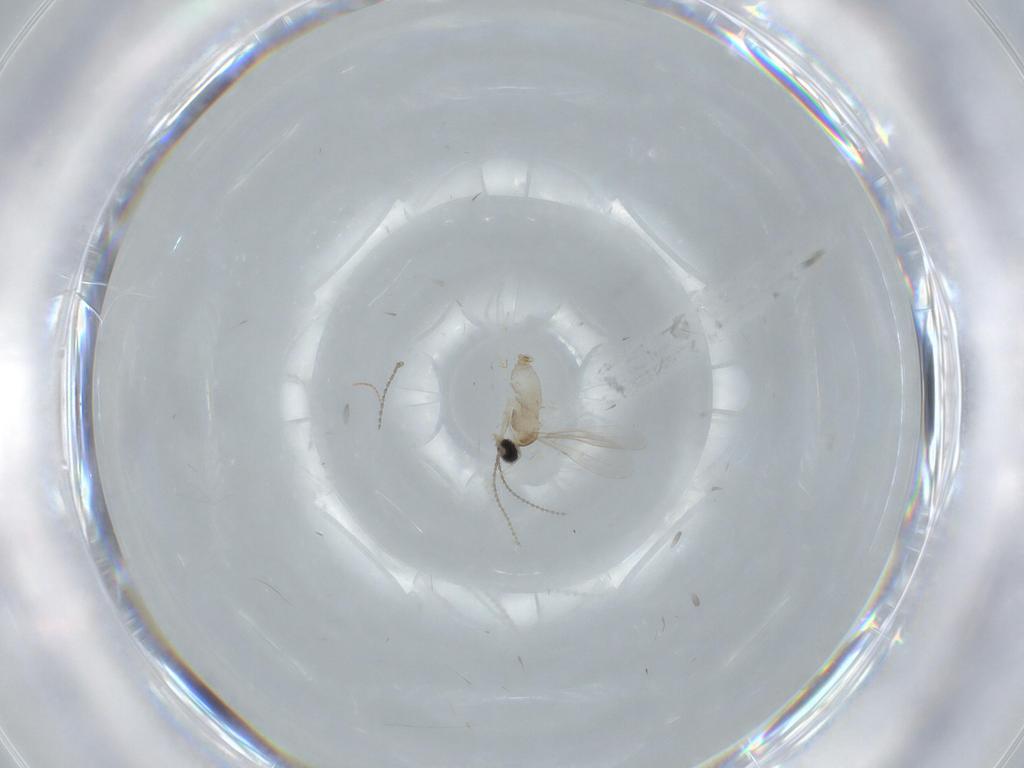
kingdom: Animalia
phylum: Arthropoda
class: Insecta
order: Diptera
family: Cecidomyiidae
